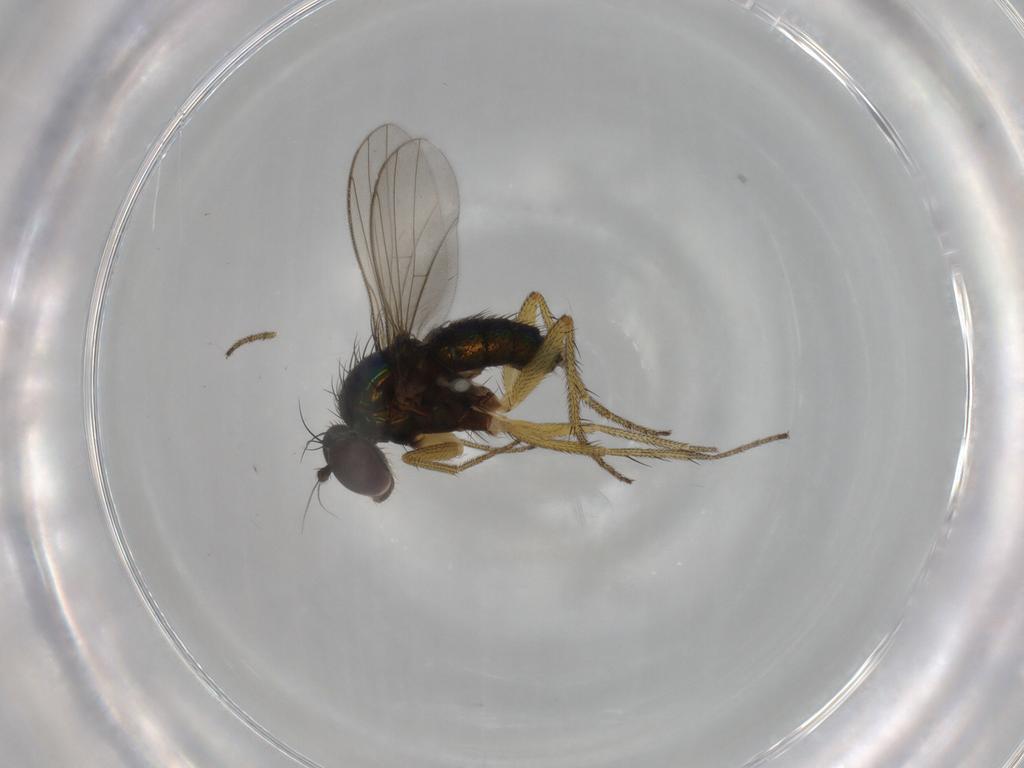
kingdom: Animalia
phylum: Arthropoda
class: Insecta
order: Diptera
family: Dolichopodidae
